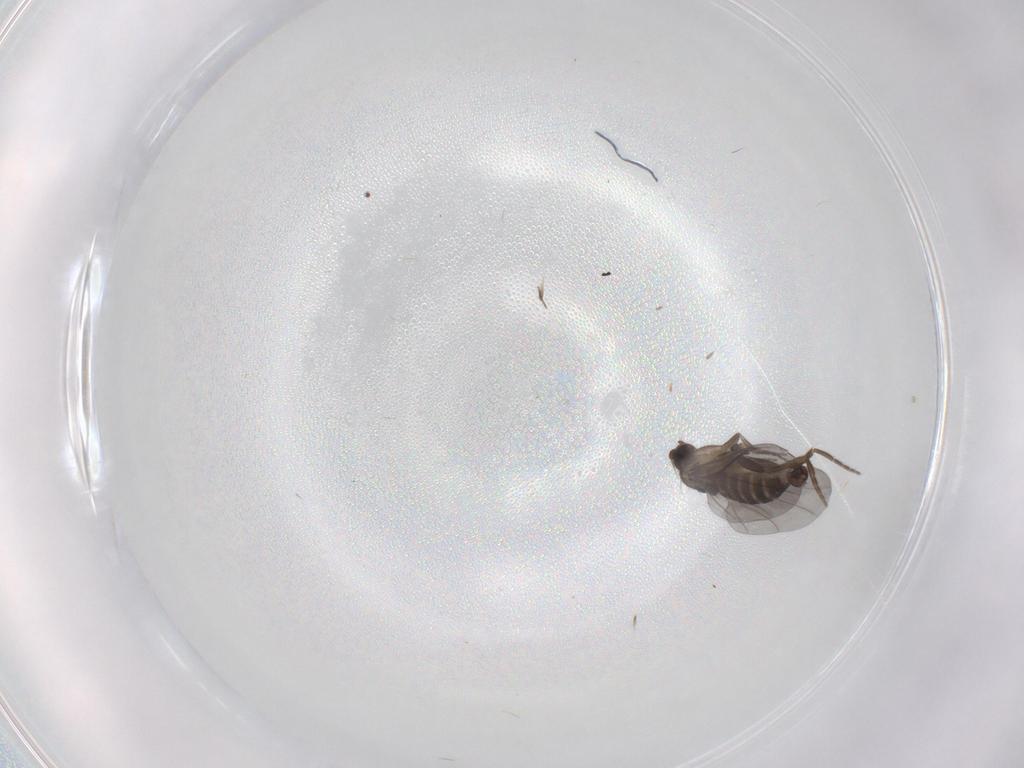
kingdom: Animalia
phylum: Arthropoda
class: Insecta
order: Diptera
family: Phoridae
